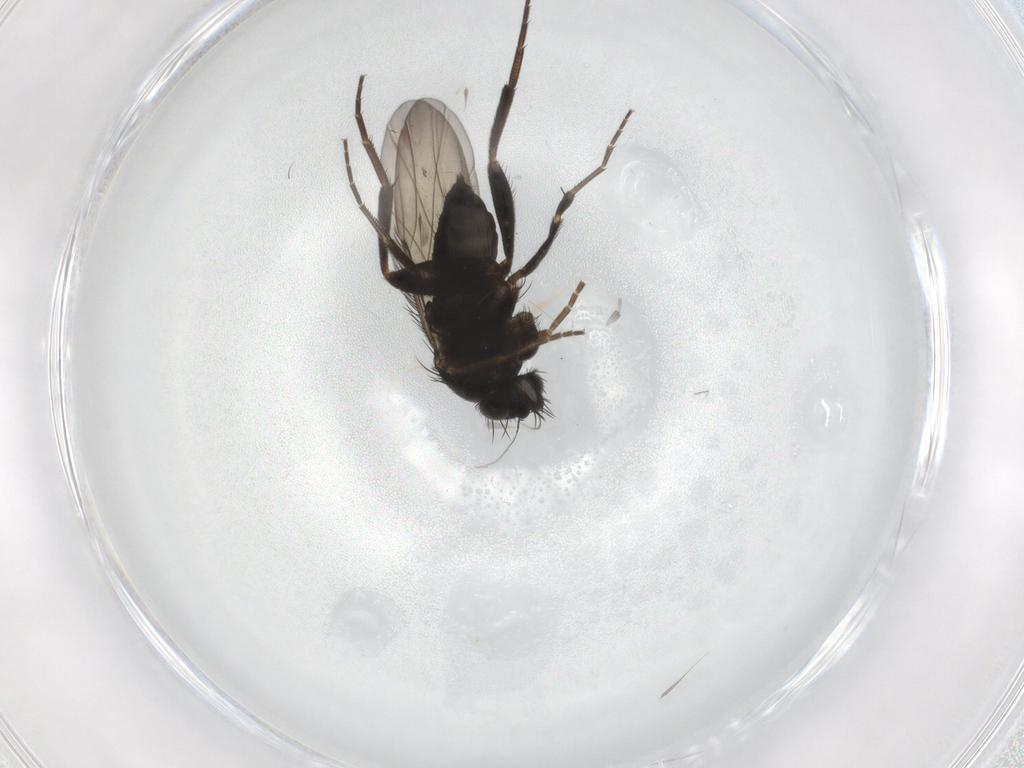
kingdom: Animalia
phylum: Arthropoda
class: Insecta
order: Diptera
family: Phoridae
